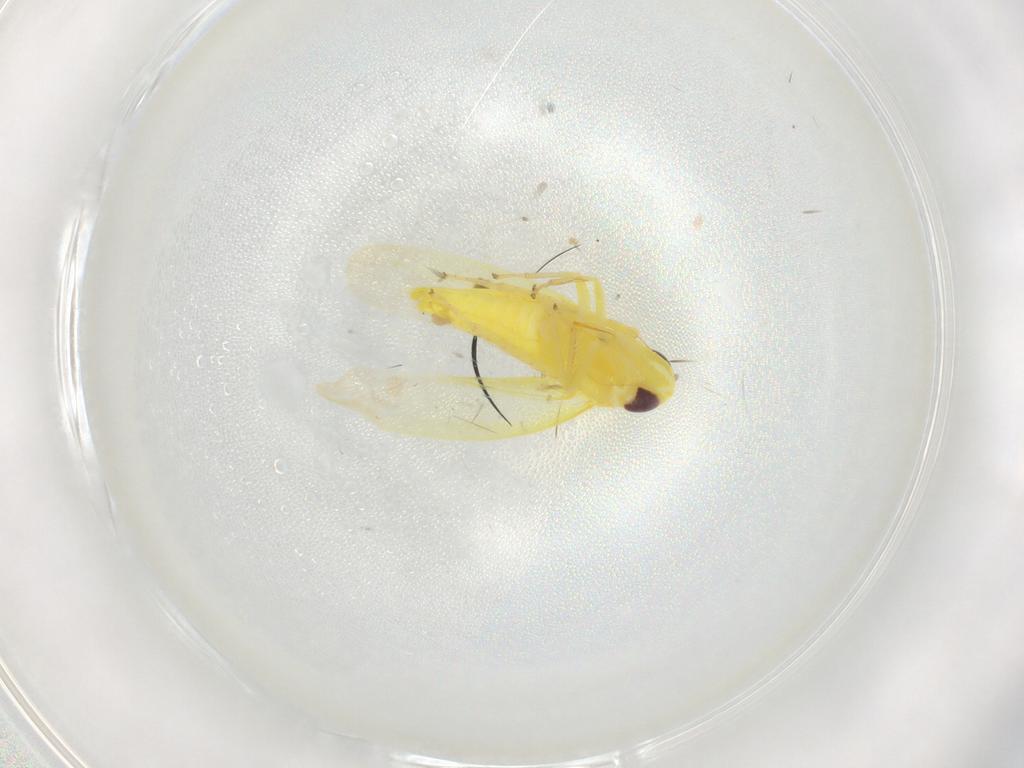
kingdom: Animalia
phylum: Arthropoda
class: Insecta
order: Hemiptera
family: Cicadellidae
